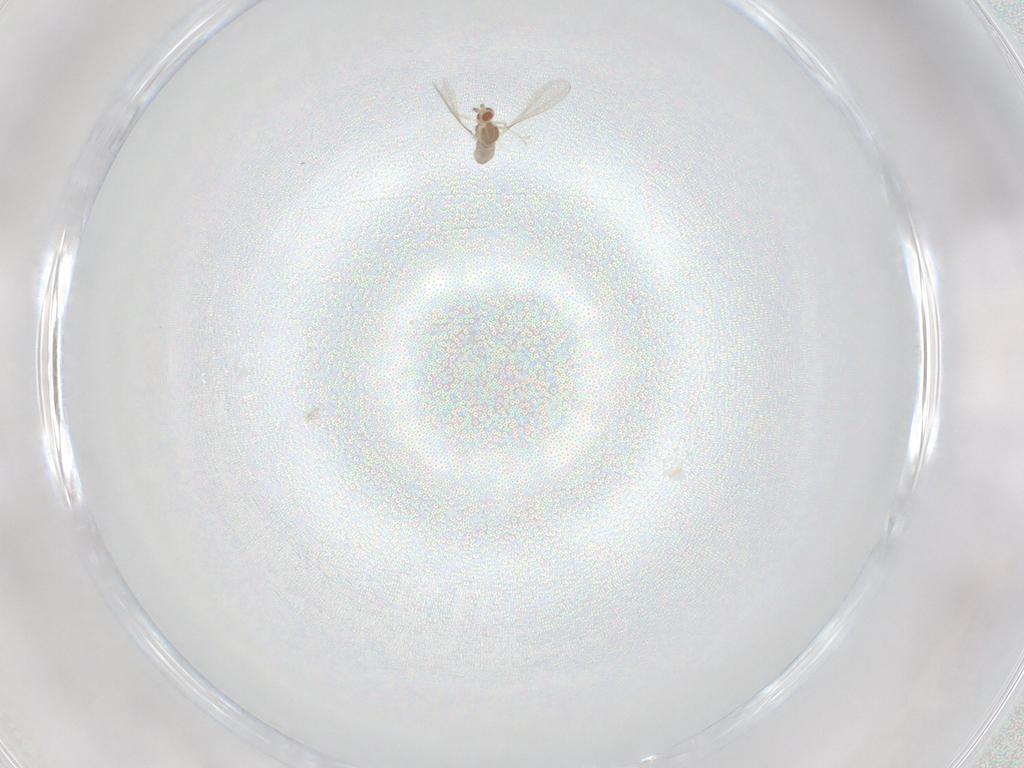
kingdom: Animalia
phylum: Arthropoda
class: Insecta
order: Diptera
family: Cecidomyiidae
